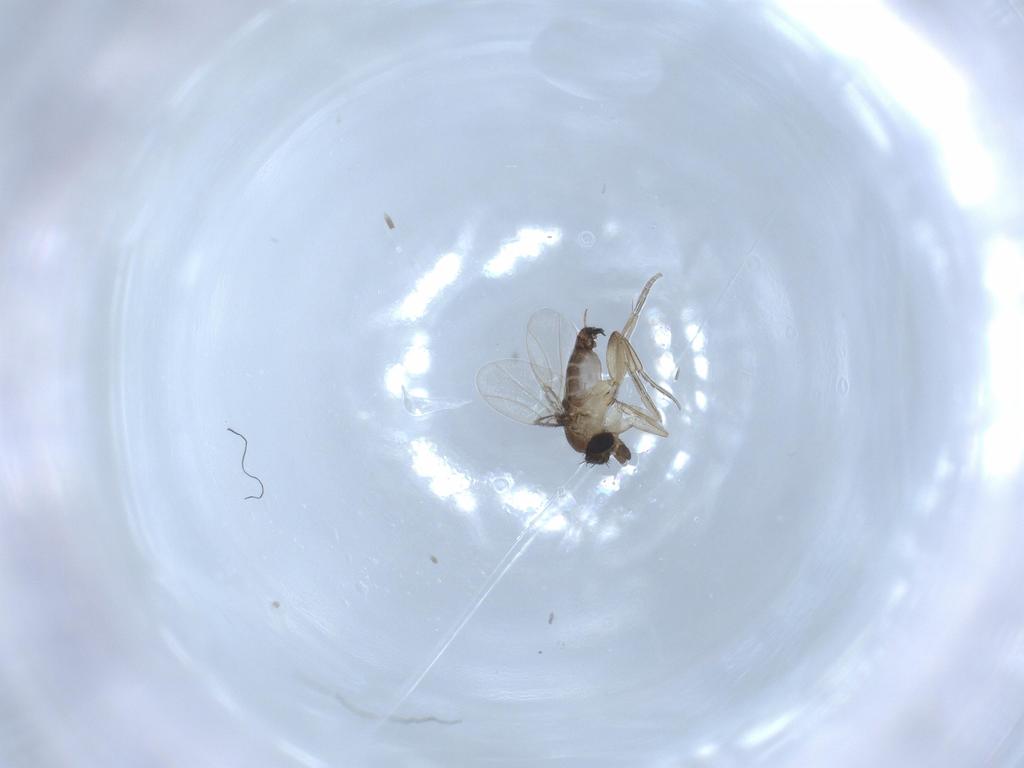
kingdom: Animalia
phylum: Arthropoda
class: Insecta
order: Diptera
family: Phoridae
